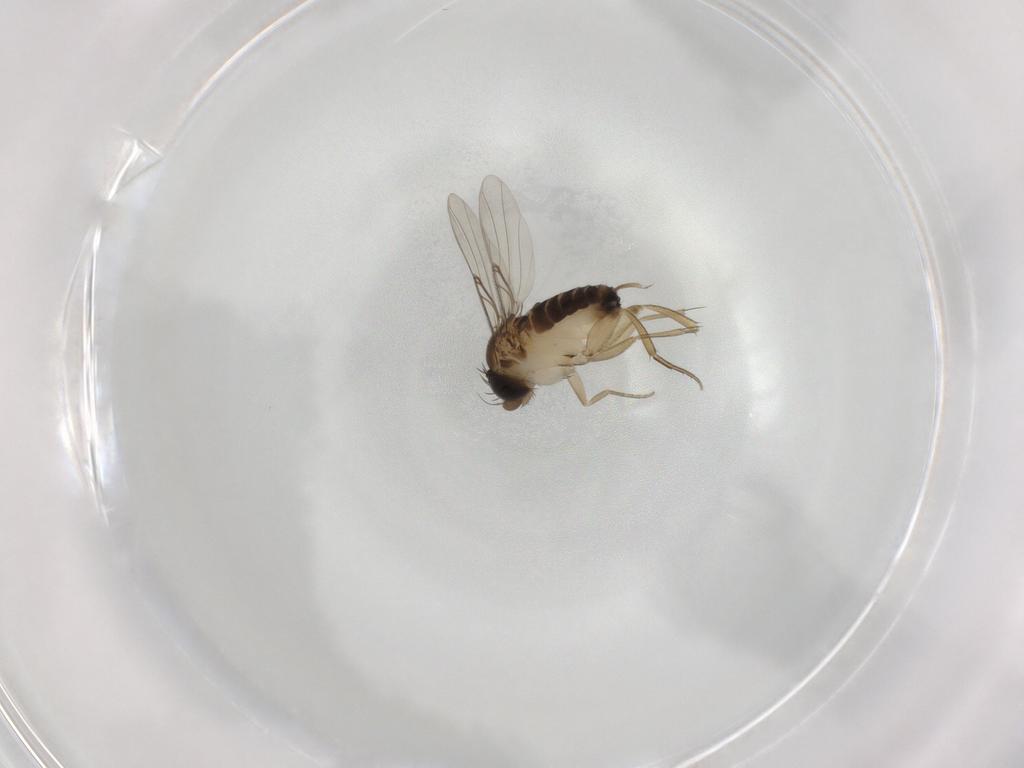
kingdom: Animalia
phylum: Arthropoda
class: Insecta
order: Diptera
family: Phoridae
